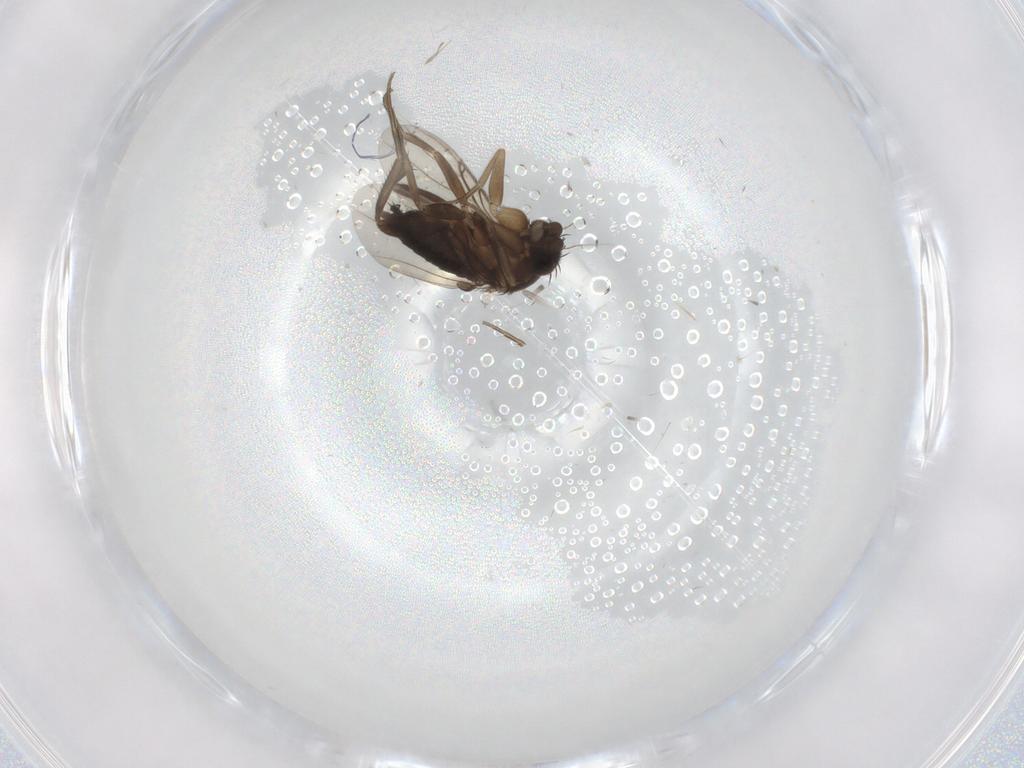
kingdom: Animalia
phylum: Arthropoda
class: Insecta
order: Diptera
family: Phoridae
